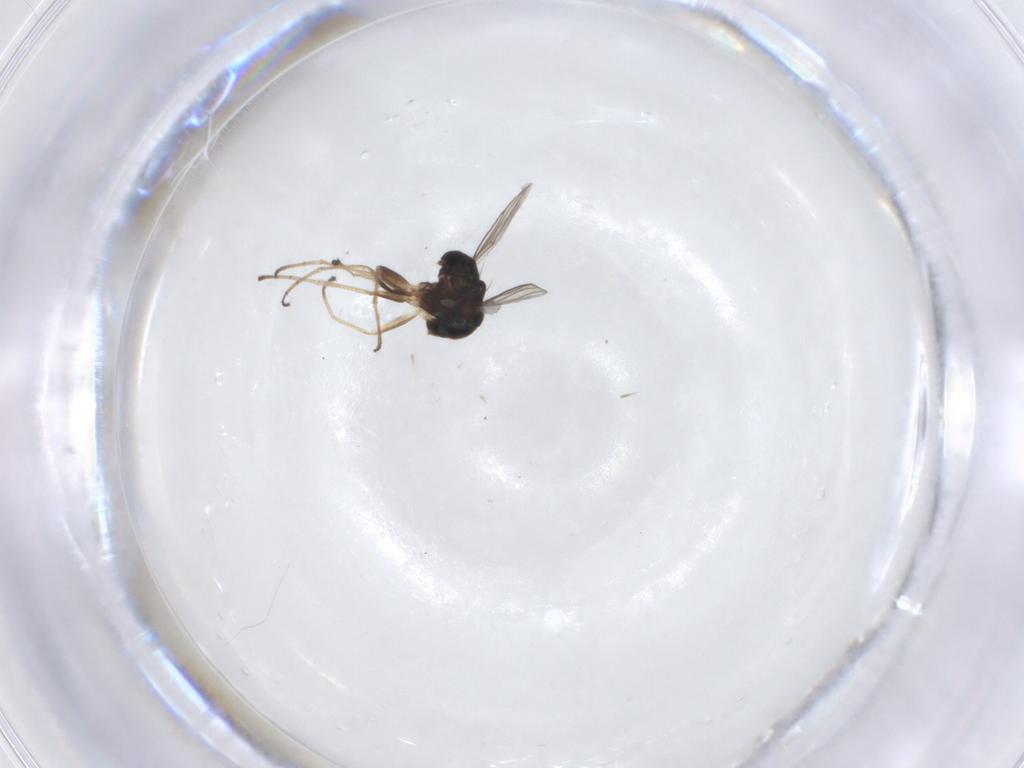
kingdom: Animalia
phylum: Arthropoda
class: Insecta
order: Diptera
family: Dolichopodidae
